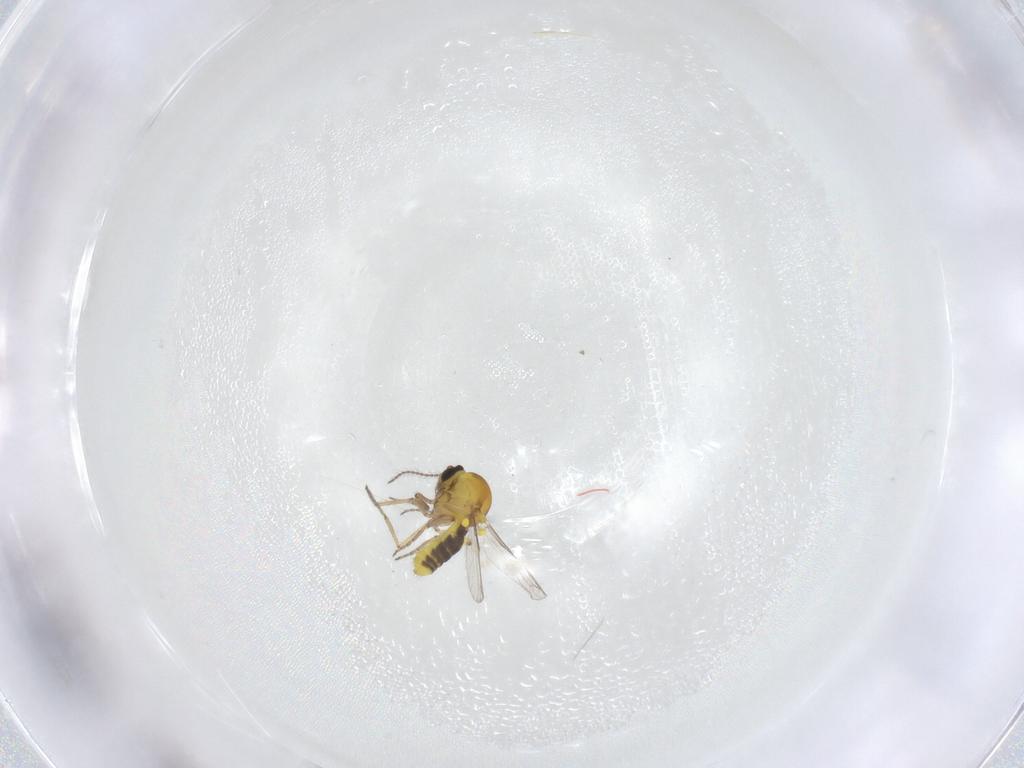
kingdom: Animalia
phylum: Arthropoda
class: Insecta
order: Diptera
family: Ceratopogonidae
